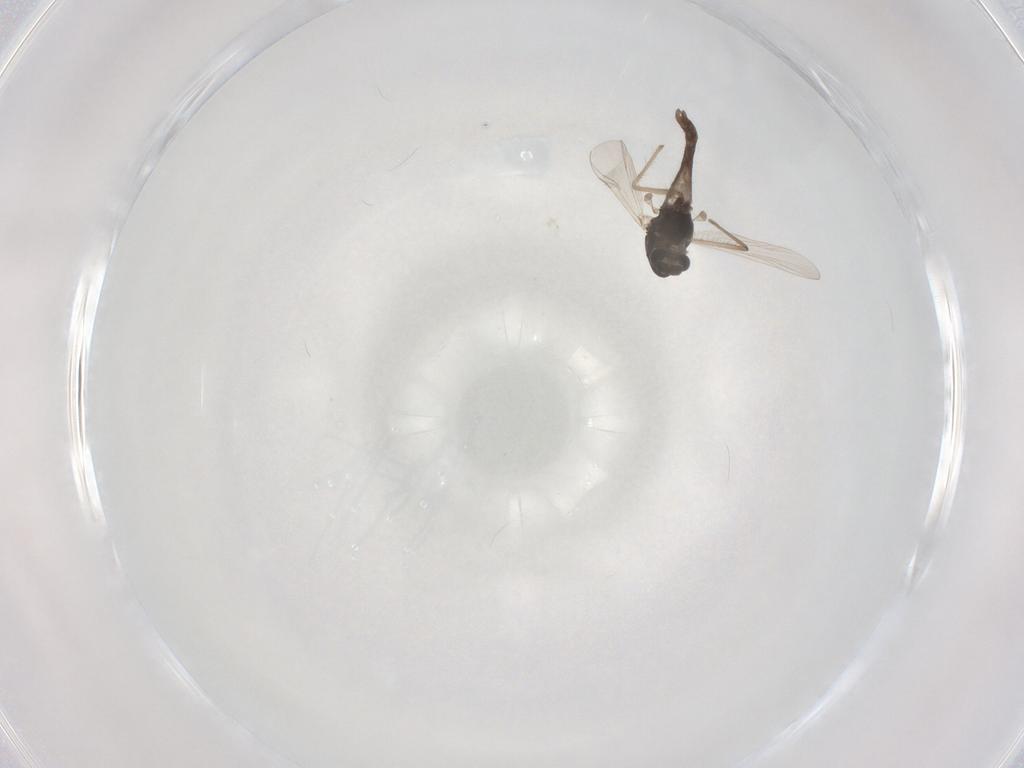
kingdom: Animalia
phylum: Arthropoda
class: Insecta
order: Diptera
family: Chironomidae
